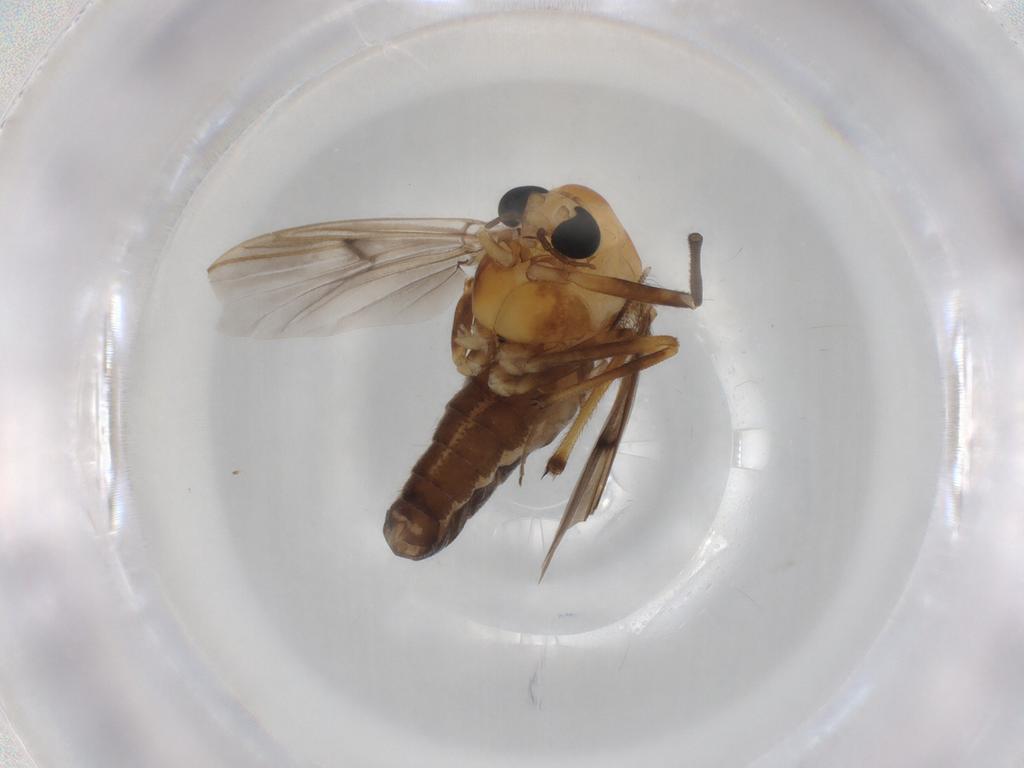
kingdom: Animalia
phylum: Arthropoda
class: Insecta
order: Diptera
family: Chironomidae
